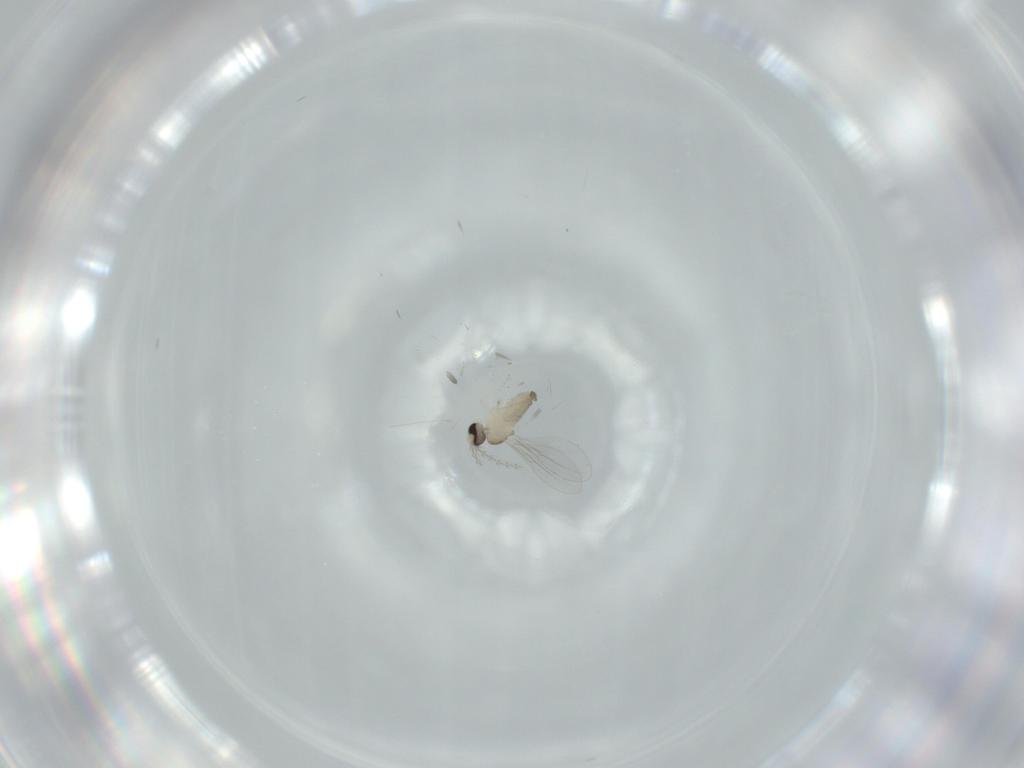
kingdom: Animalia
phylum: Arthropoda
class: Insecta
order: Diptera
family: Cecidomyiidae
